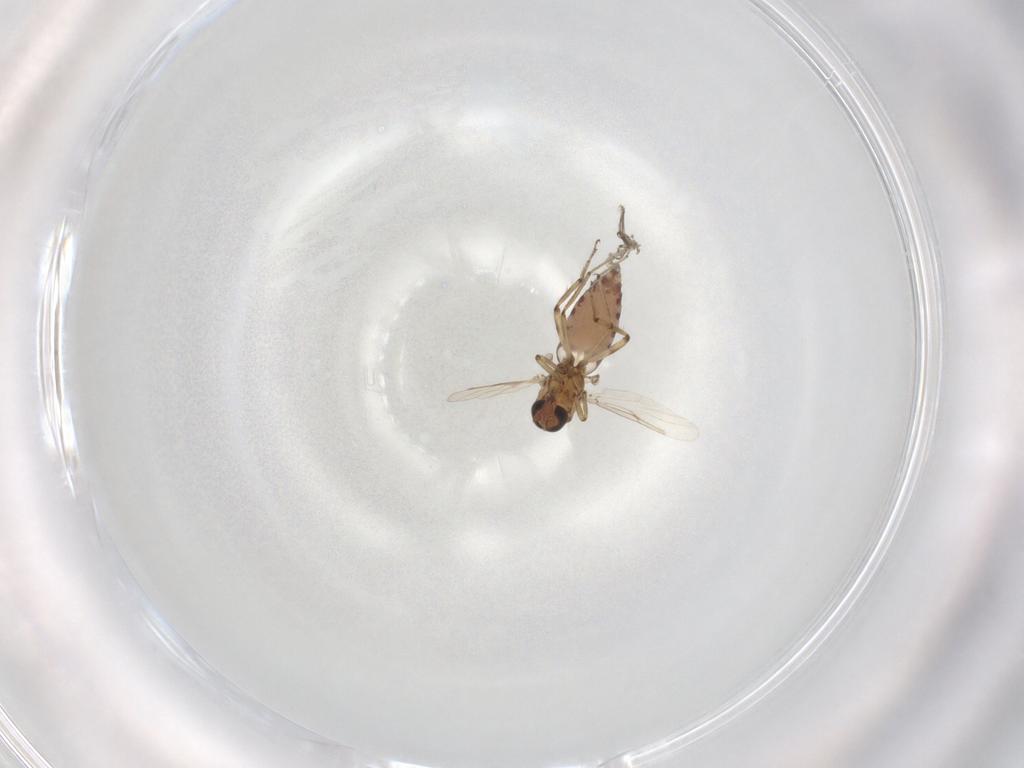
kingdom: Animalia
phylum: Arthropoda
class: Insecta
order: Diptera
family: Ceratopogonidae
